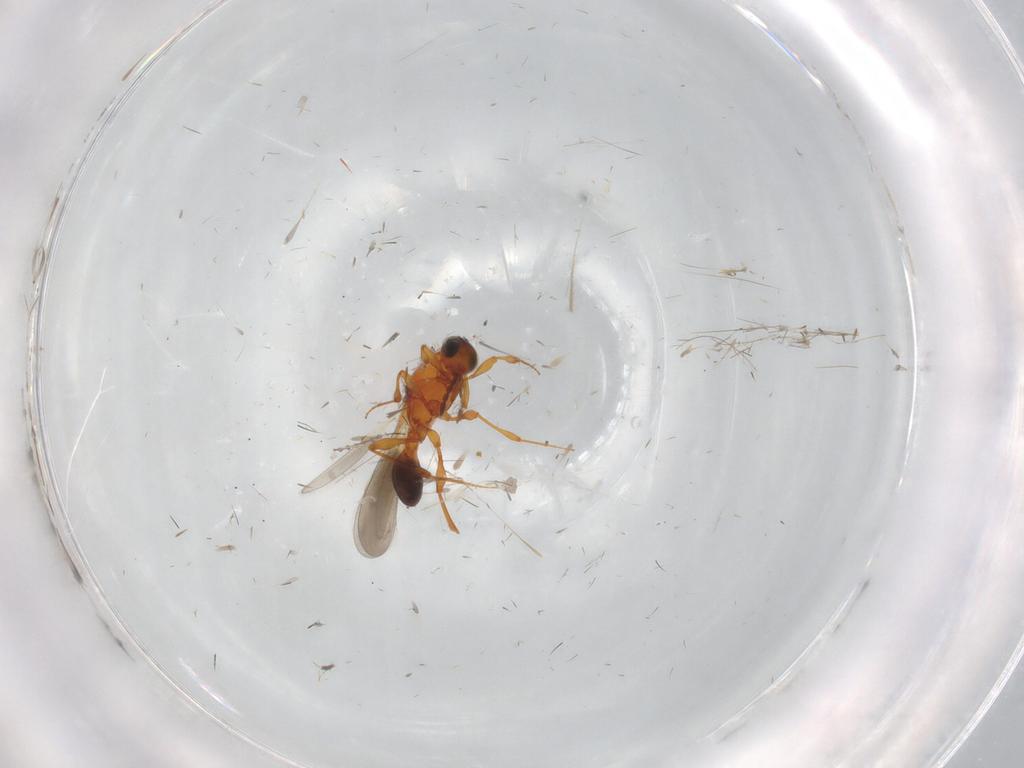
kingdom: Animalia
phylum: Arthropoda
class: Insecta
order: Hymenoptera
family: Platygastridae
